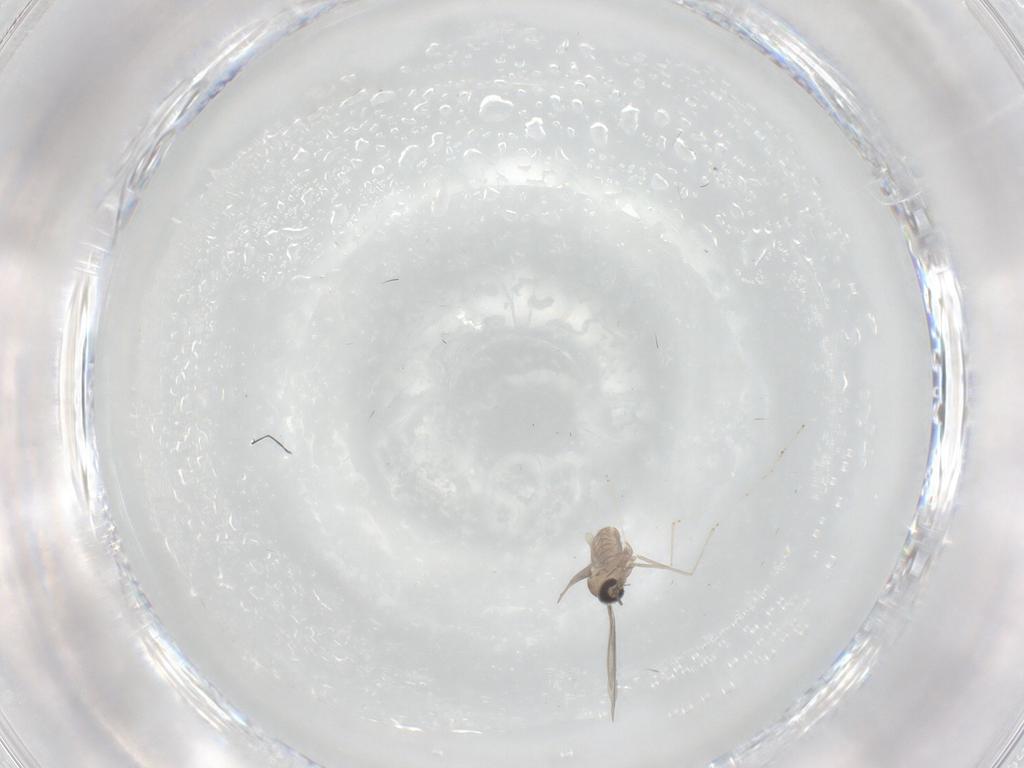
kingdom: Animalia
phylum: Arthropoda
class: Insecta
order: Diptera
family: Cecidomyiidae
